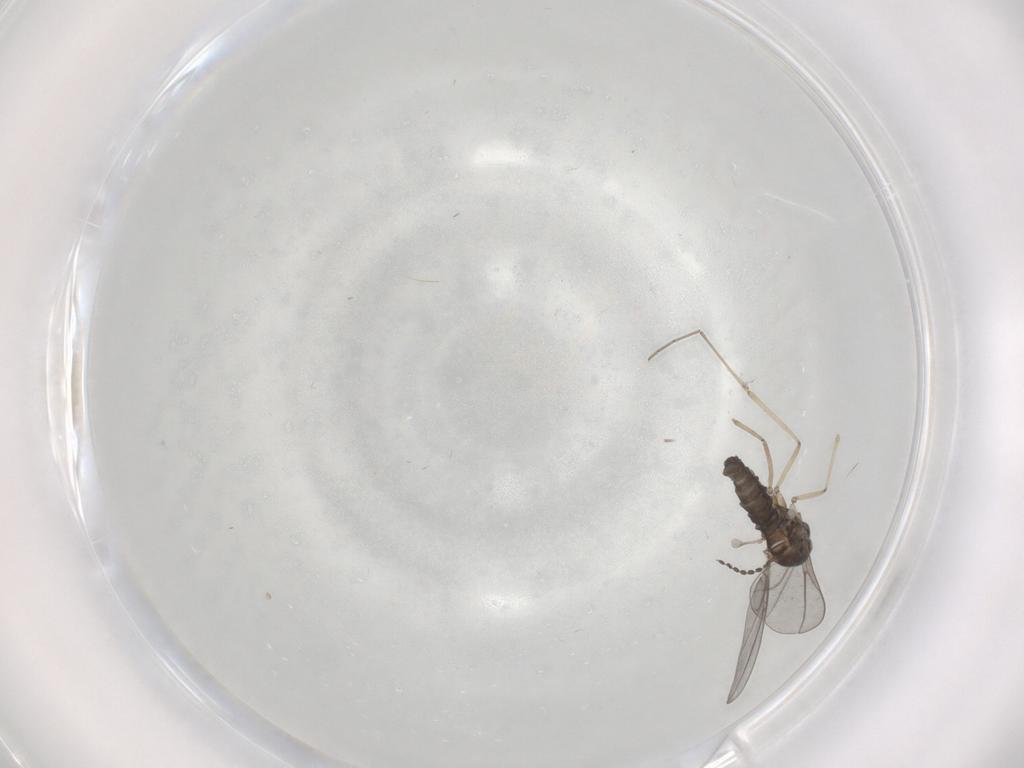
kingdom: Animalia
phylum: Arthropoda
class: Insecta
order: Diptera
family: Cecidomyiidae
